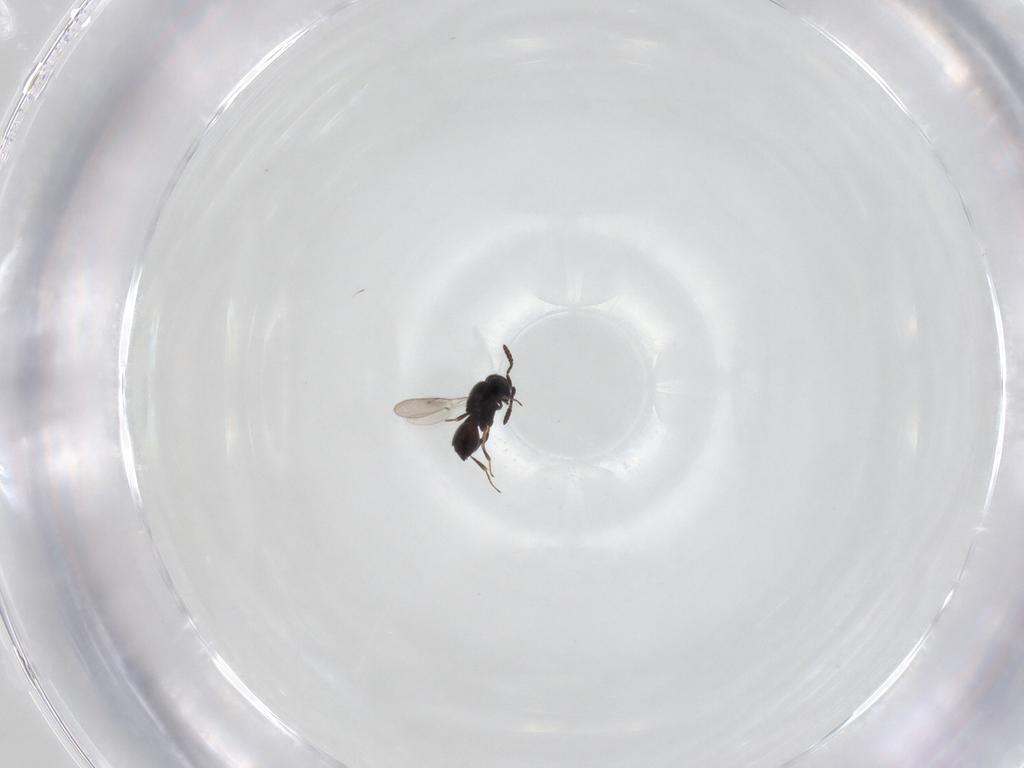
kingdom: Animalia
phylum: Arthropoda
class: Insecta
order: Hymenoptera
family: Scelionidae
